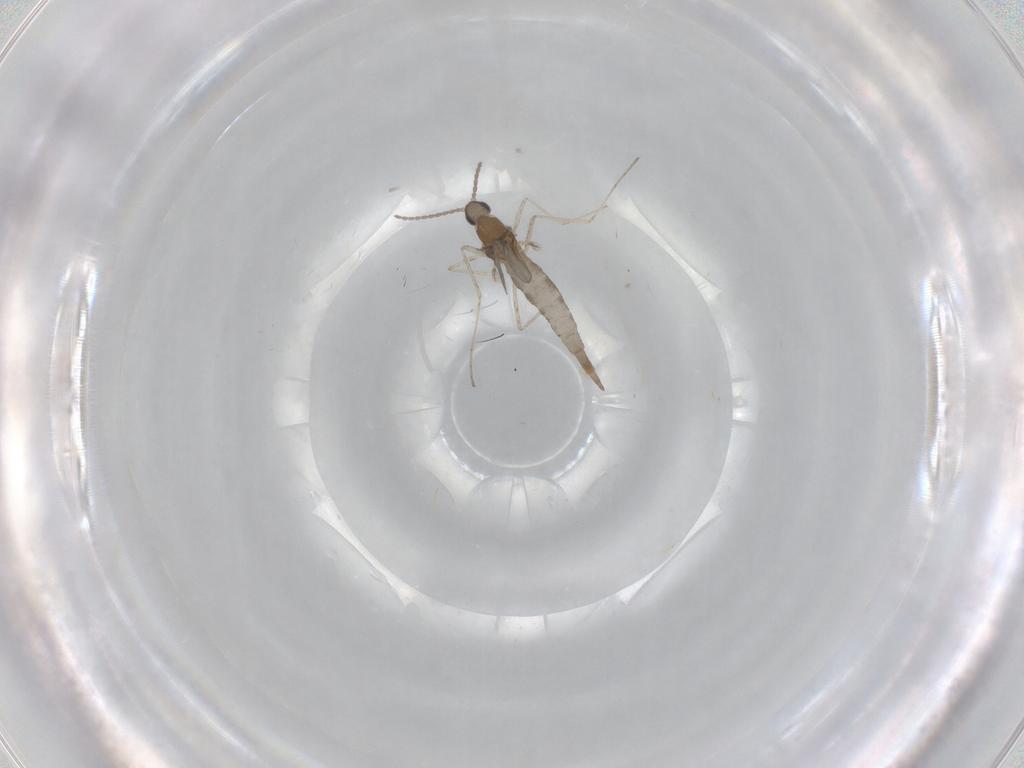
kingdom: Animalia
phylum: Arthropoda
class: Insecta
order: Diptera
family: Cecidomyiidae
